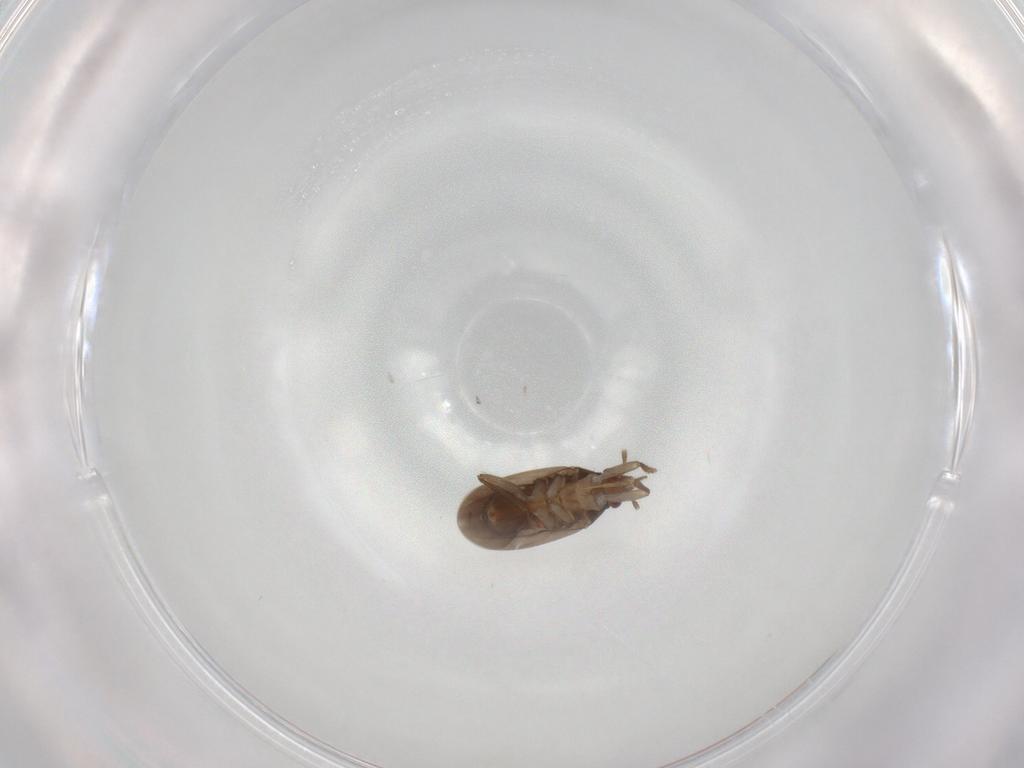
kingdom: Animalia
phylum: Arthropoda
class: Insecta
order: Hemiptera
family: Ceratocombidae
